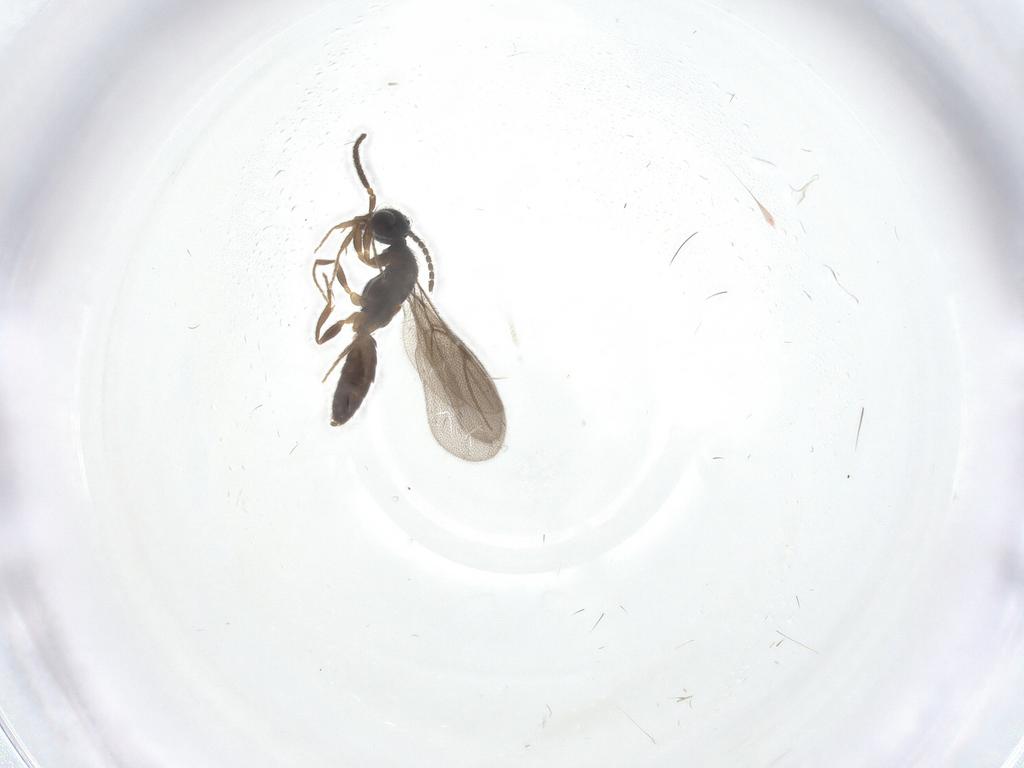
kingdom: Animalia
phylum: Arthropoda
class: Insecta
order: Hymenoptera
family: Bethylidae
